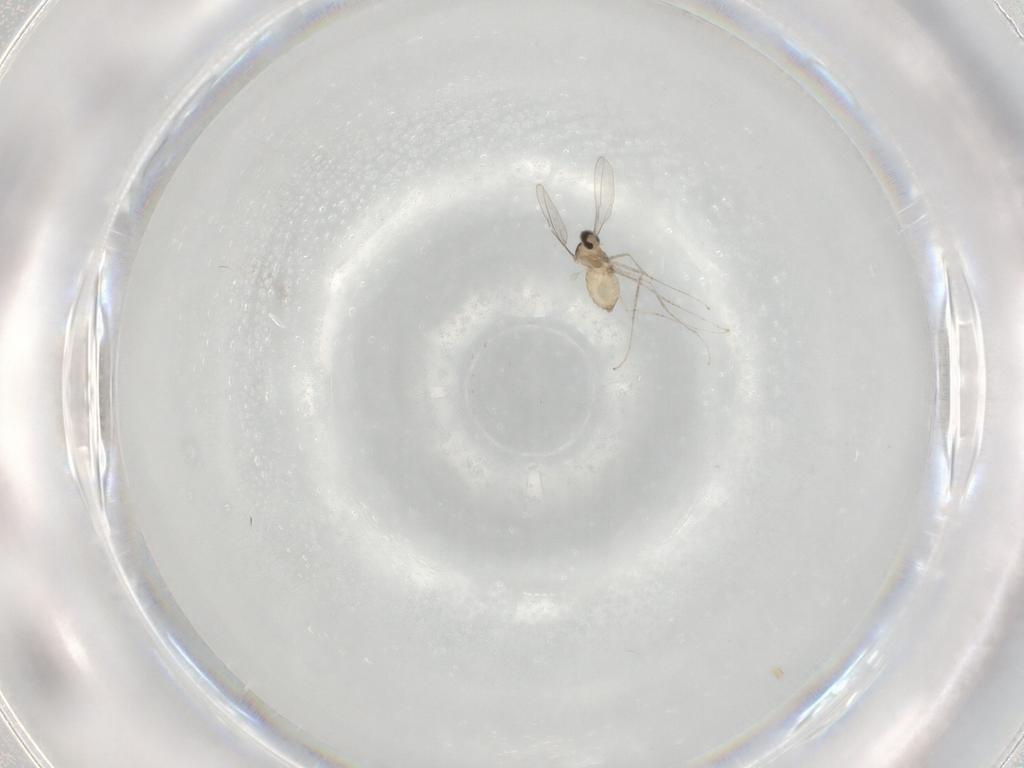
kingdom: Animalia
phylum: Arthropoda
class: Insecta
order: Diptera
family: Cecidomyiidae
